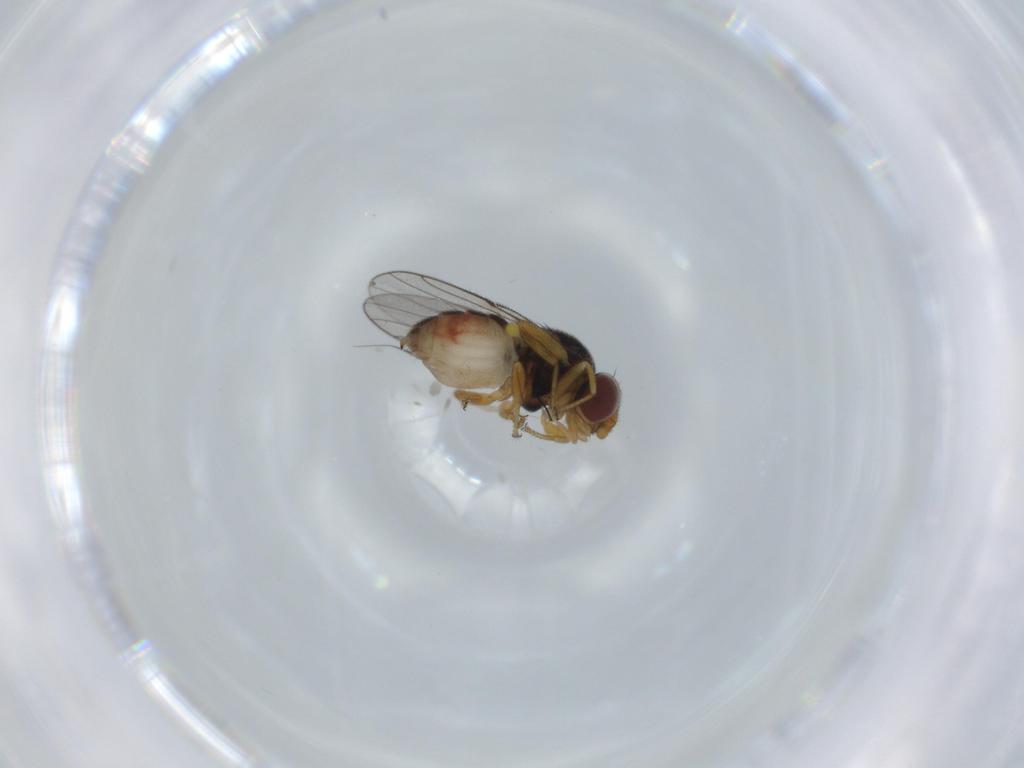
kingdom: Animalia
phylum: Arthropoda
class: Insecta
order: Diptera
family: Chloropidae
